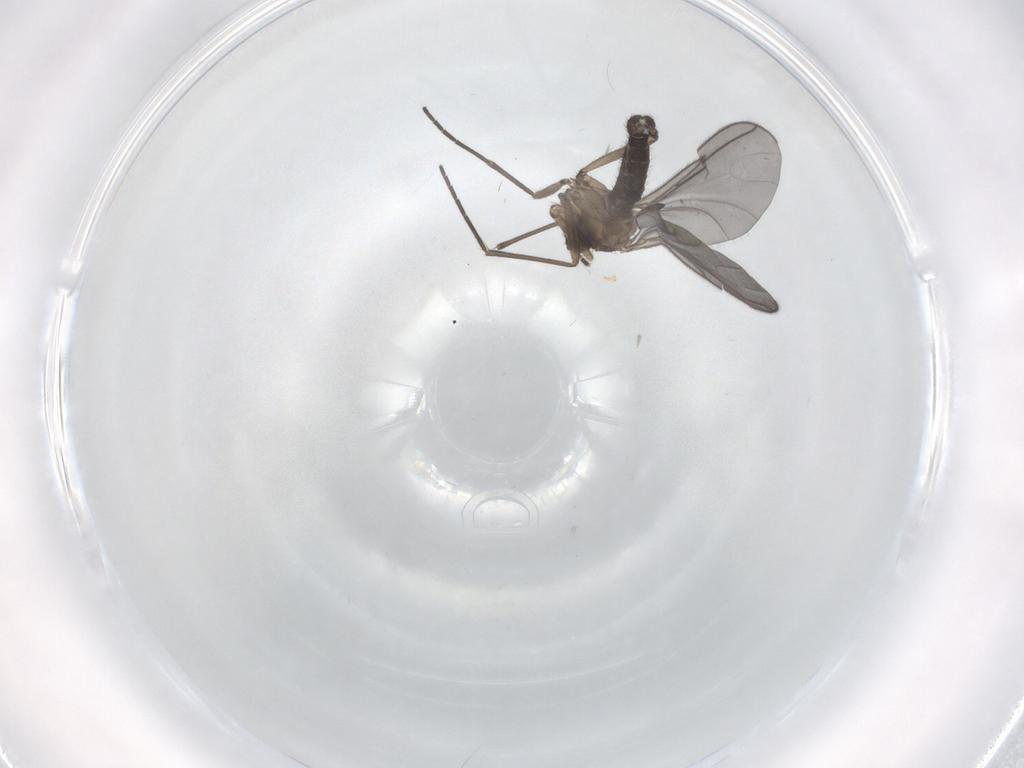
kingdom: Animalia
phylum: Arthropoda
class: Insecta
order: Diptera
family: Sciaridae
